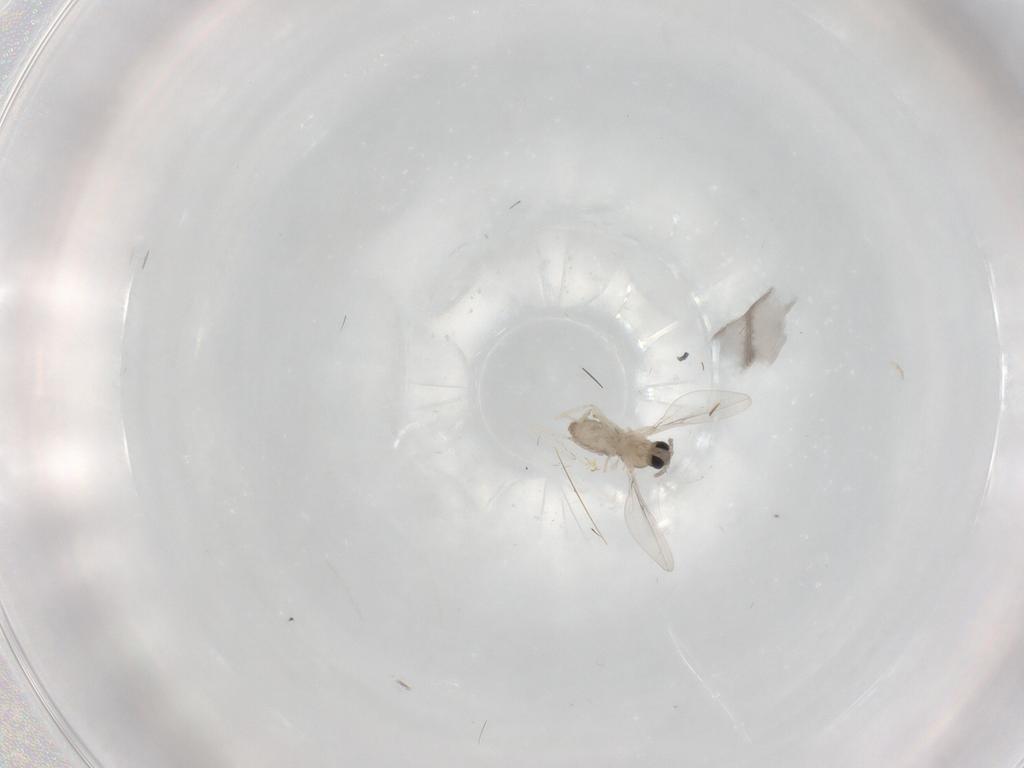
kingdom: Animalia
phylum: Arthropoda
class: Insecta
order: Diptera
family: Cecidomyiidae
